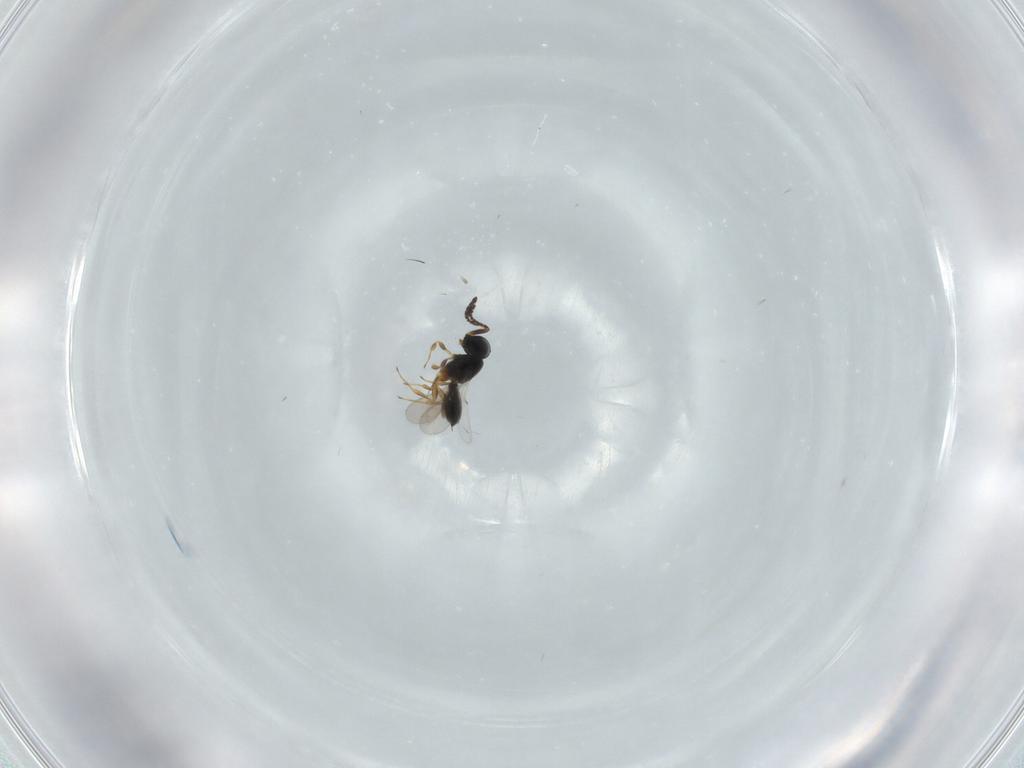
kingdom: Animalia
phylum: Arthropoda
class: Insecta
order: Hymenoptera
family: Scelionidae
